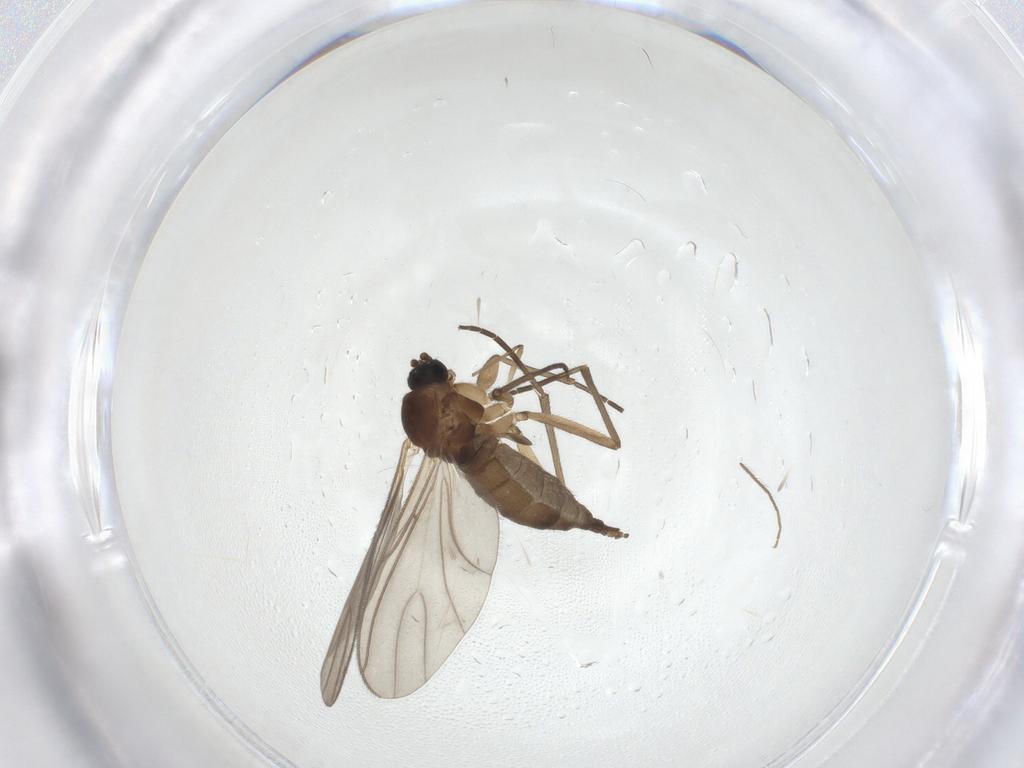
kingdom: Animalia
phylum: Arthropoda
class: Insecta
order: Diptera
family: Sciaridae
